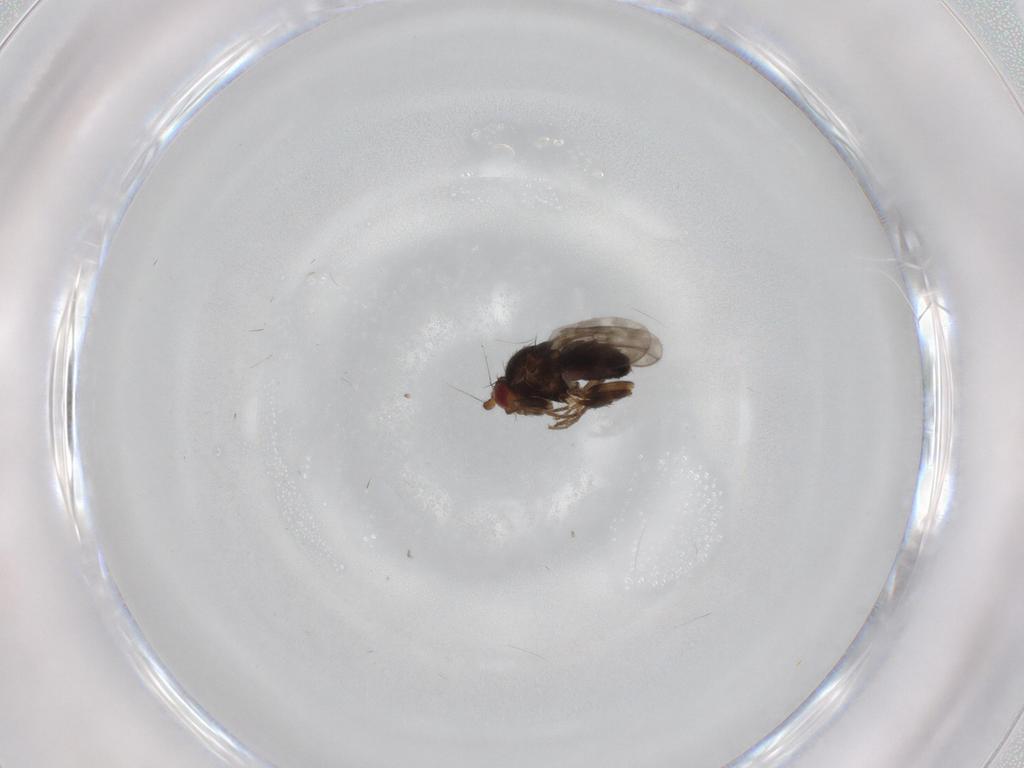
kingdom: Animalia
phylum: Arthropoda
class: Insecta
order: Diptera
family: Sphaeroceridae
